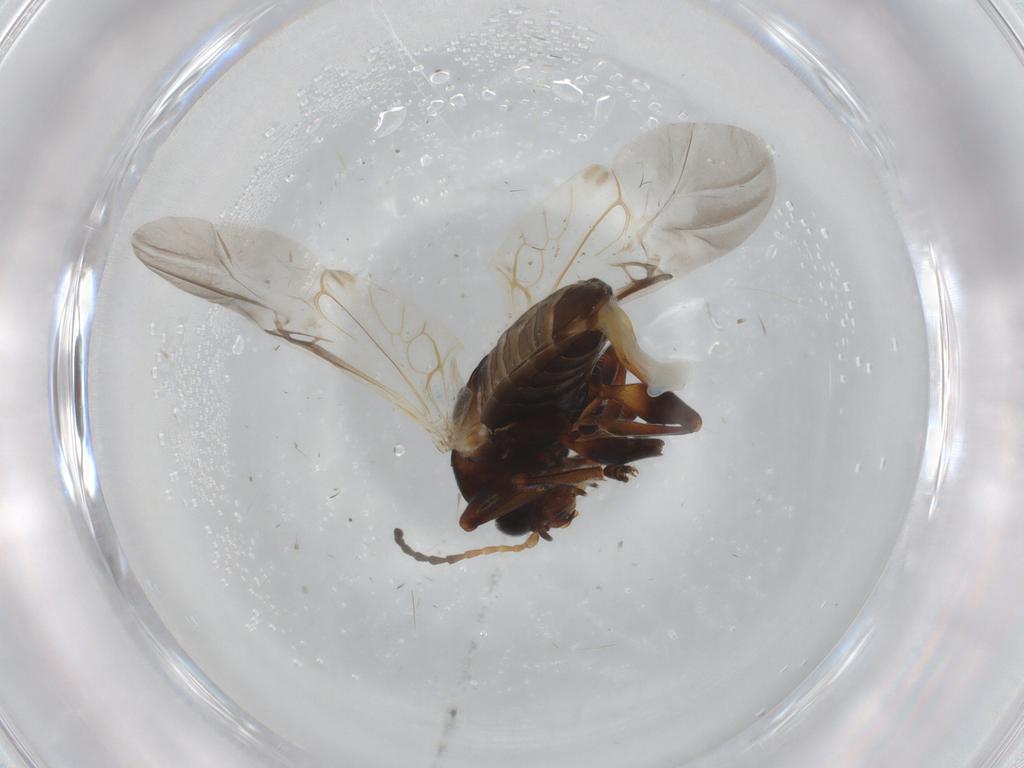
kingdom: Animalia
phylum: Arthropoda
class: Insecta
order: Coleoptera
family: Chrysomelidae
